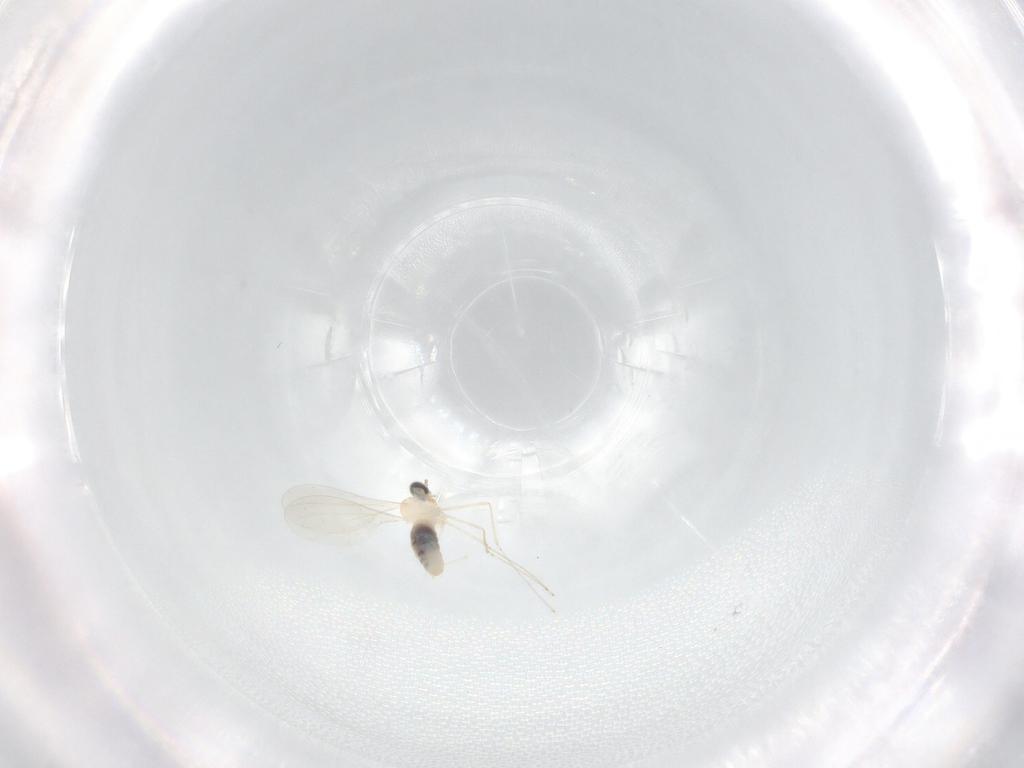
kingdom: Animalia
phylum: Arthropoda
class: Insecta
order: Diptera
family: Cecidomyiidae
